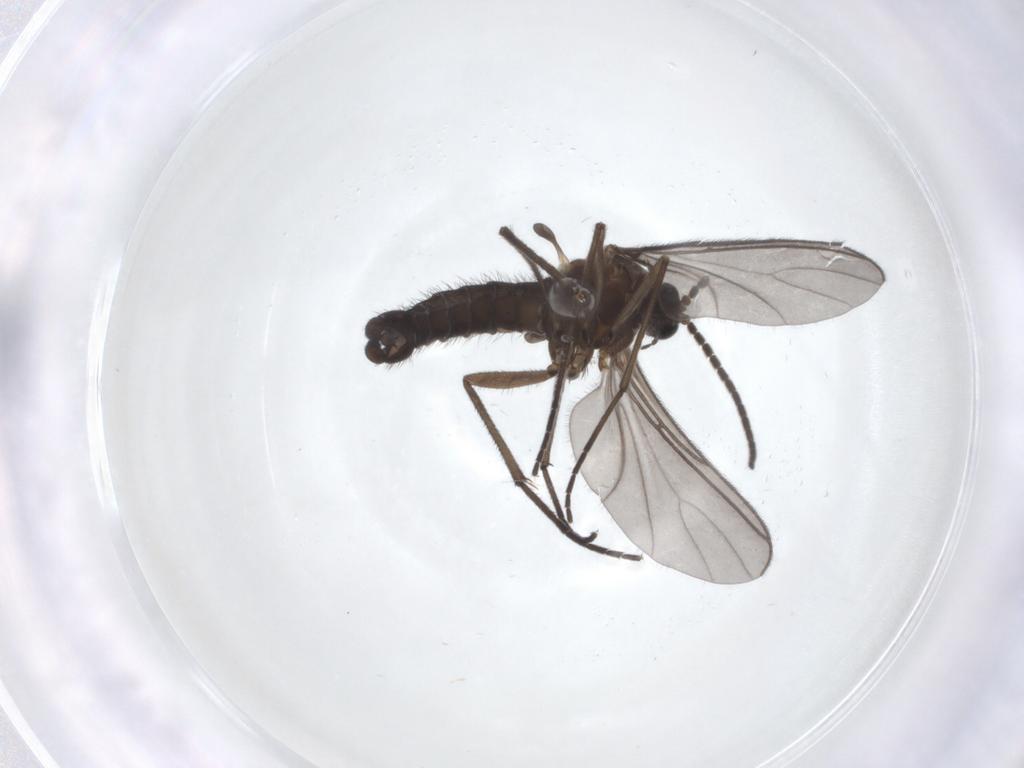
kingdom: Animalia
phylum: Arthropoda
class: Insecta
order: Diptera
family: Sciaridae
